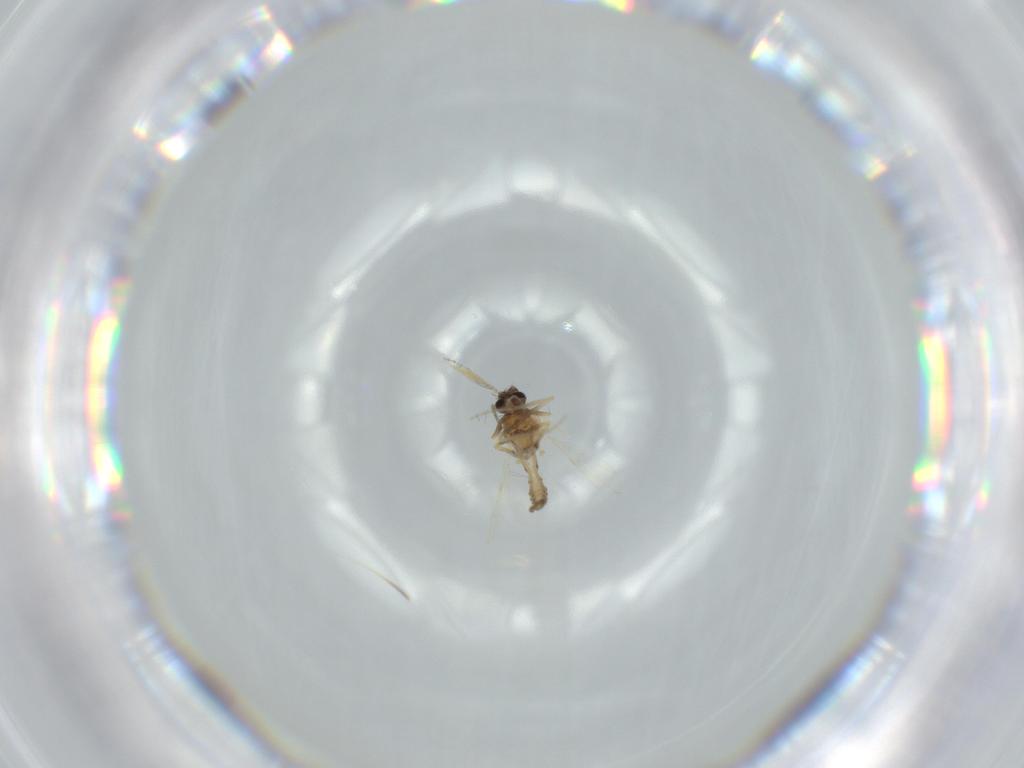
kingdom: Animalia
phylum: Arthropoda
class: Insecta
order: Diptera
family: Ceratopogonidae
